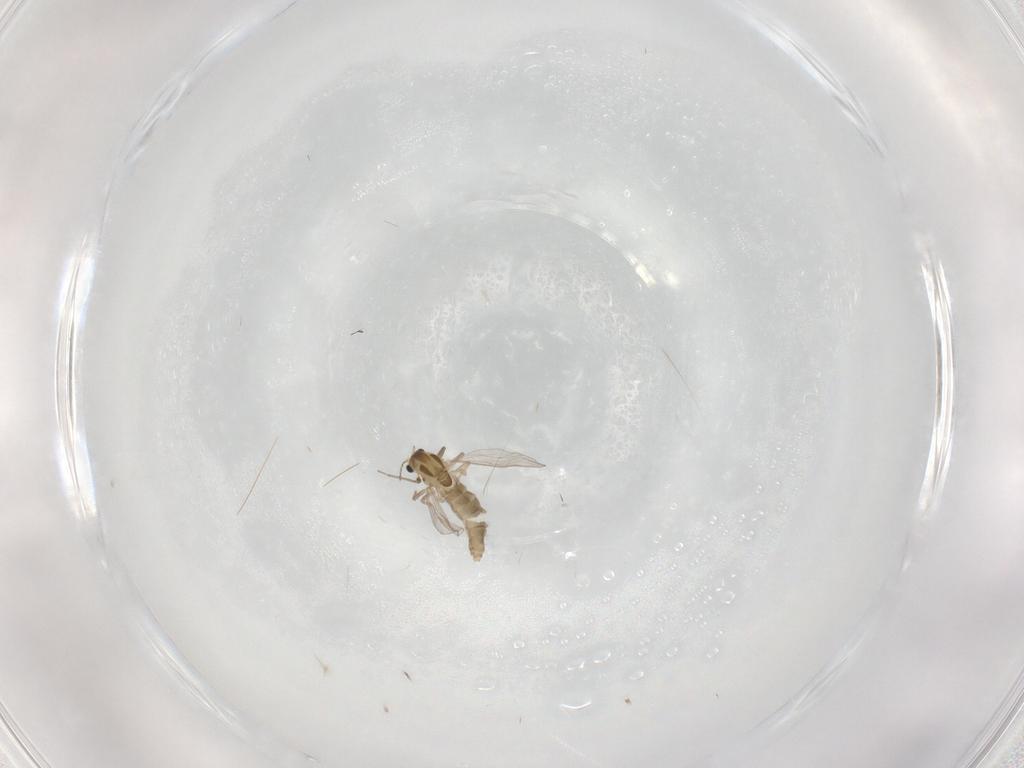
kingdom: Animalia
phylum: Arthropoda
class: Insecta
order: Diptera
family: Chironomidae
